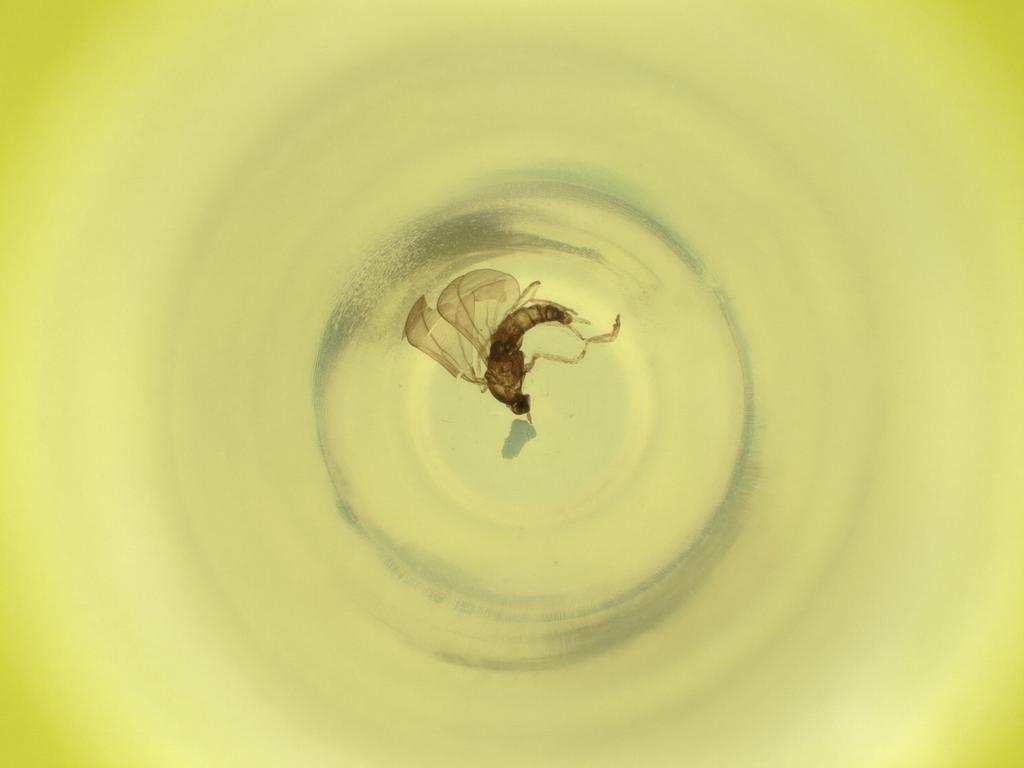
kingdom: Animalia
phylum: Arthropoda
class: Insecta
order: Diptera
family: Cecidomyiidae
